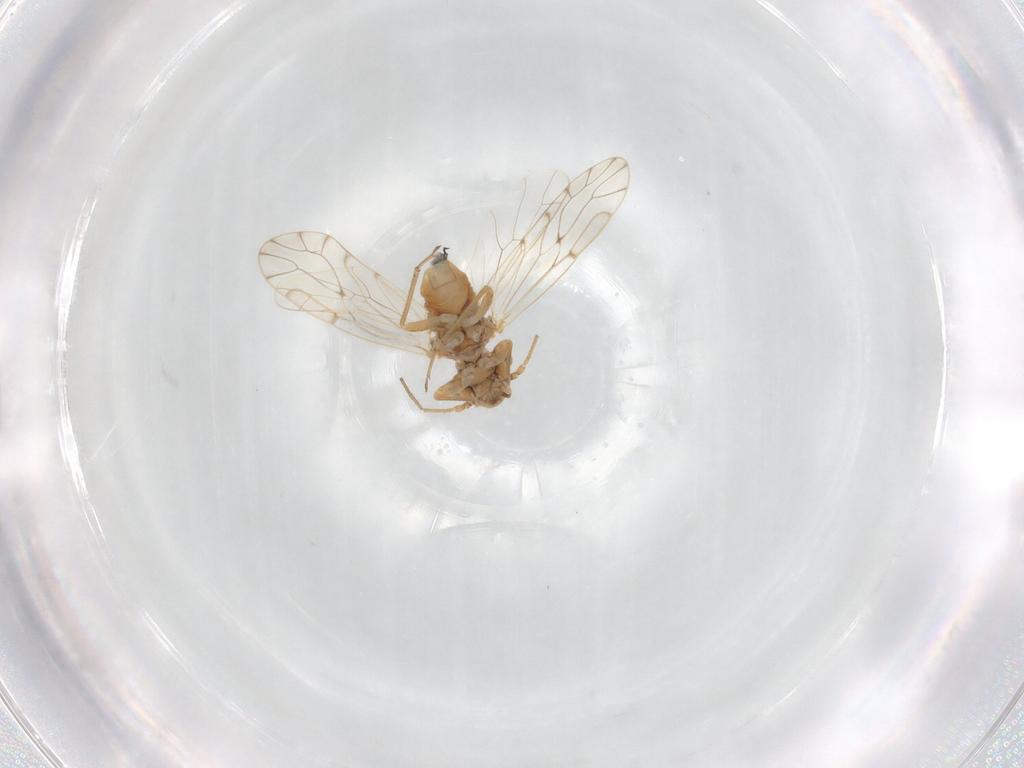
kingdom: Animalia
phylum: Arthropoda
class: Insecta
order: Psocodea
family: Ectopsocidae
